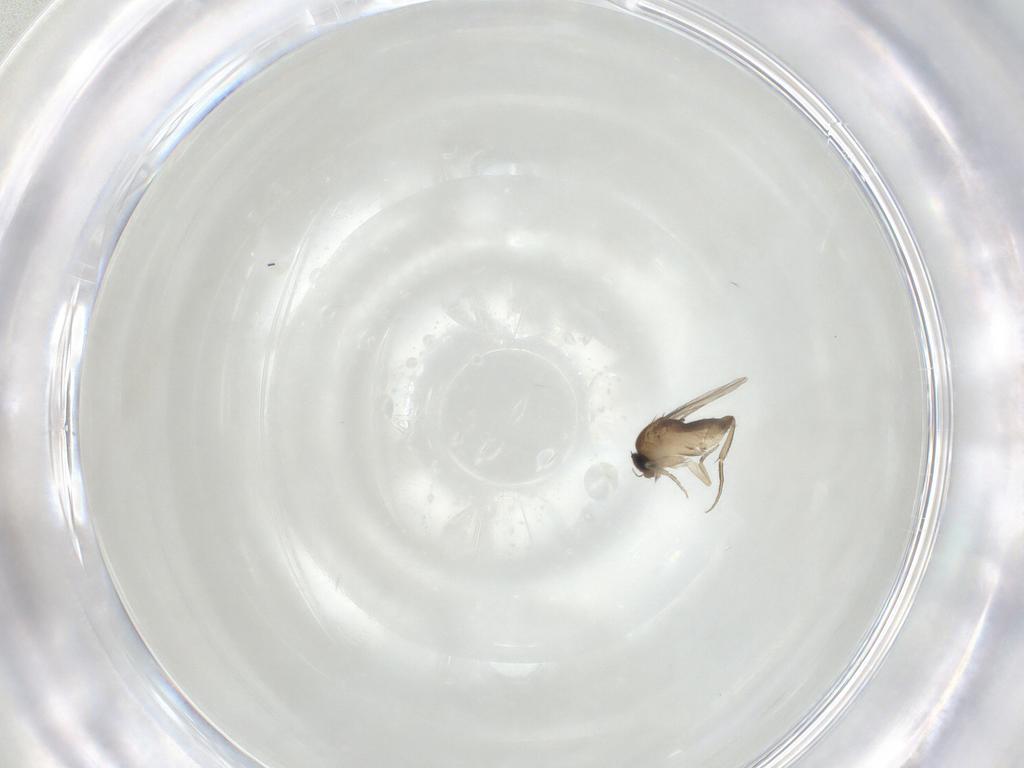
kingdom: Animalia
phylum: Arthropoda
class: Insecta
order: Diptera
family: Phoridae
